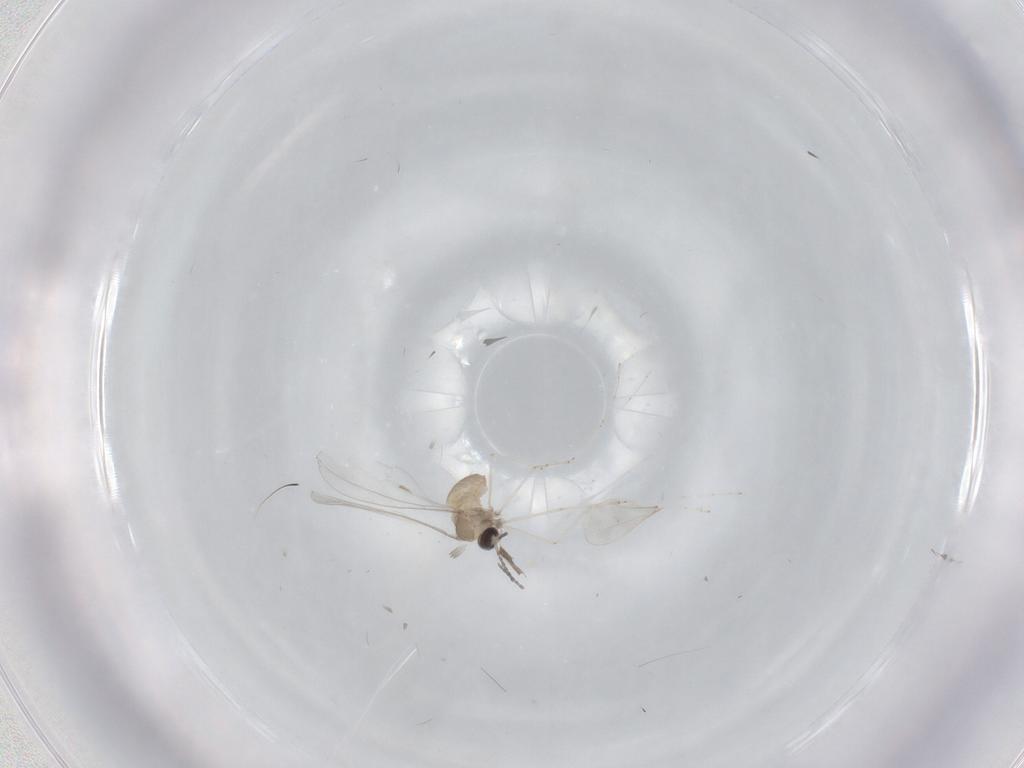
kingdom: Animalia
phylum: Arthropoda
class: Insecta
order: Diptera
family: Cecidomyiidae
